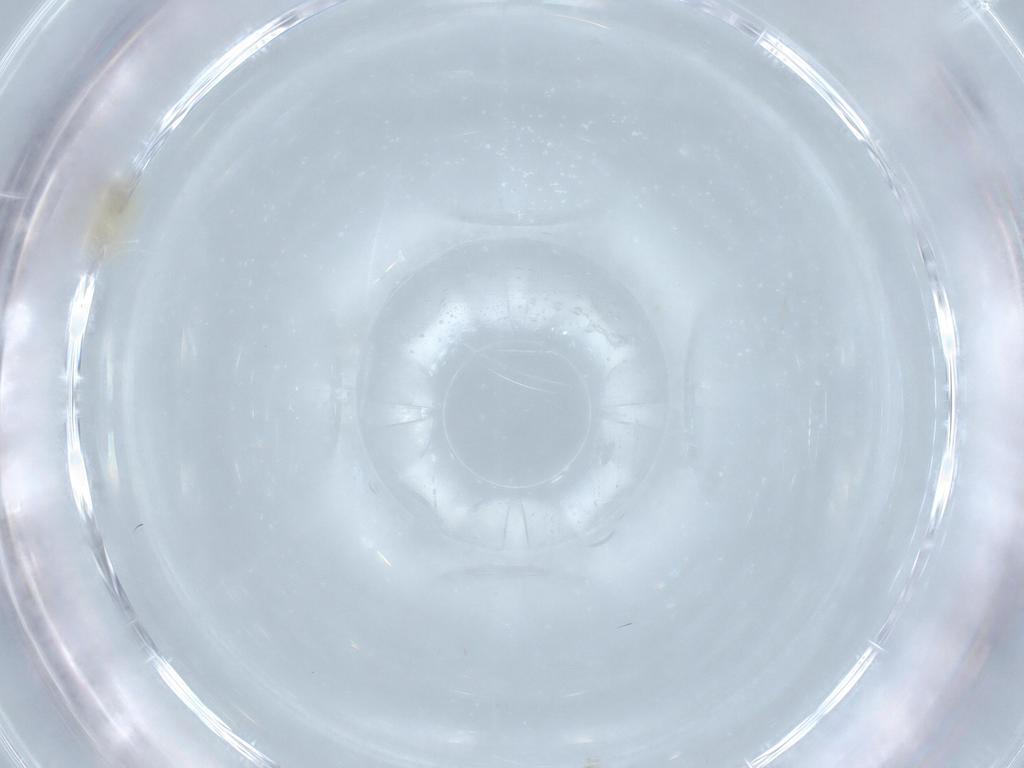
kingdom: Animalia
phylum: Arthropoda
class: Insecta
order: Hymenoptera
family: Aphelinidae
